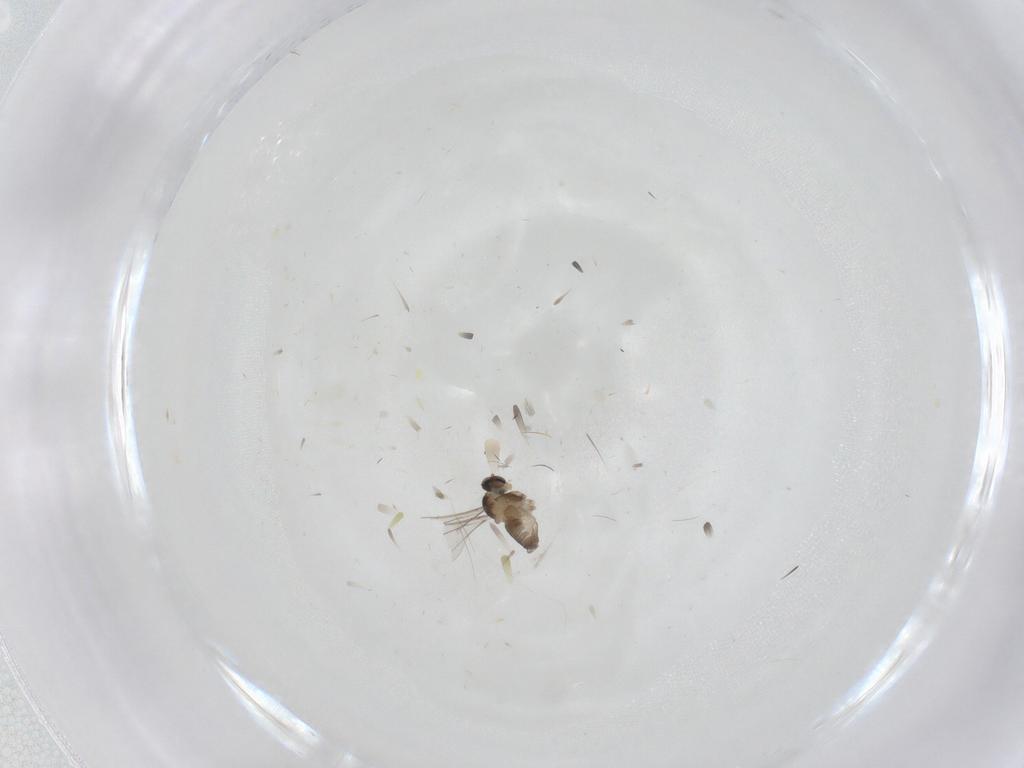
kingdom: Animalia
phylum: Arthropoda
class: Insecta
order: Diptera
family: Cecidomyiidae
